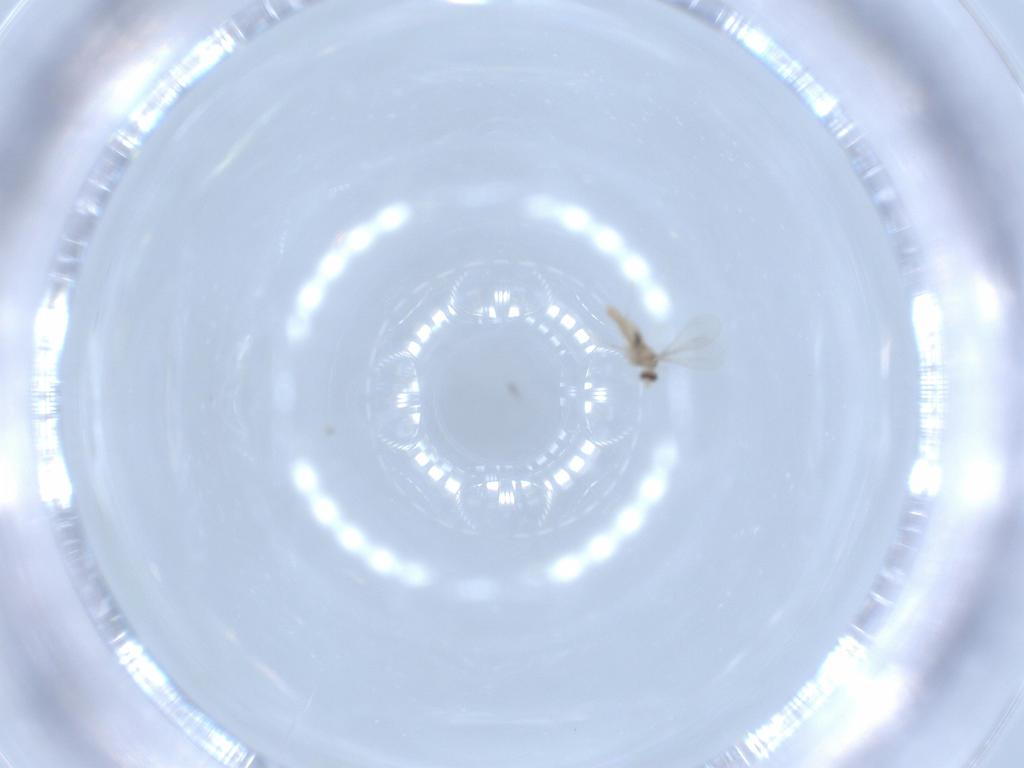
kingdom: Animalia
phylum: Arthropoda
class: Insecta
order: Diptera
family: Cecidomyiidae
